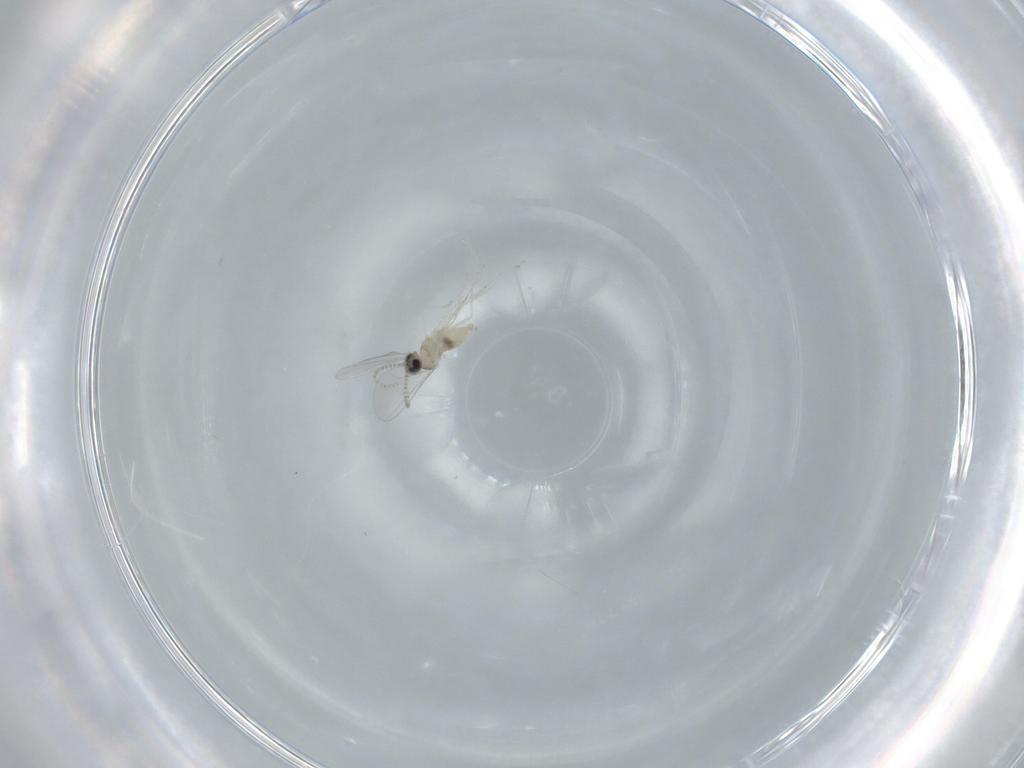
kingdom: Animalia
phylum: Arthropoda
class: Insecta
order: Diptera
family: Cecidomyiidae
